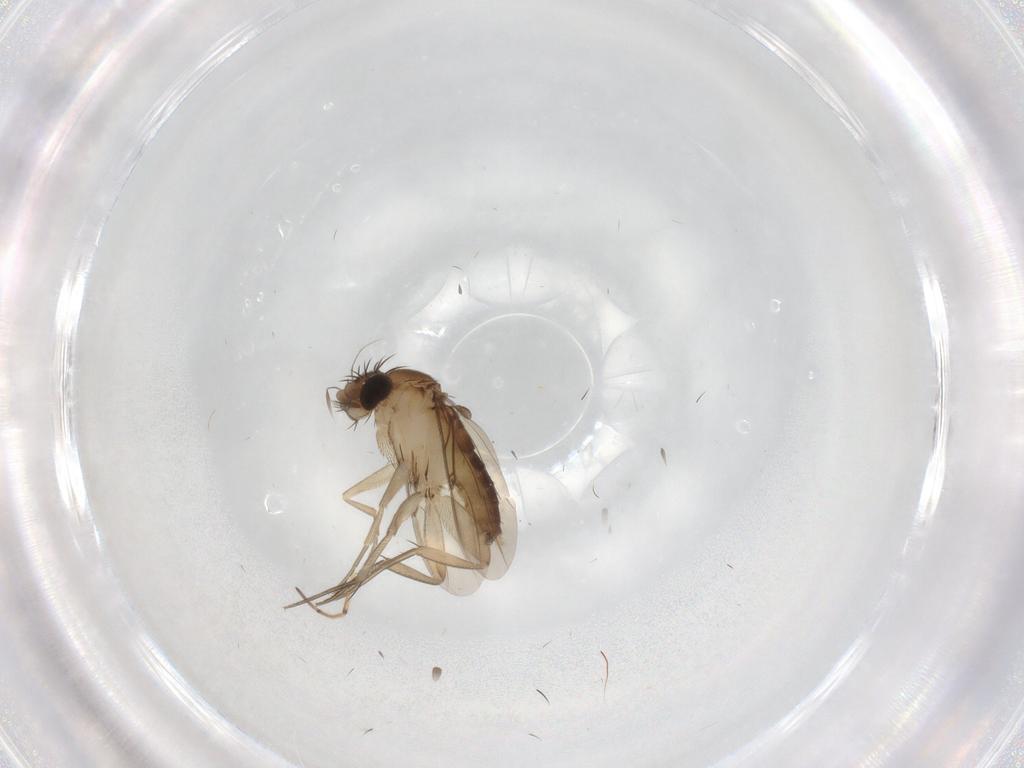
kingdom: Animalia
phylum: Arthropoda
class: Insecta
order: Diptera
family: Phoridae
